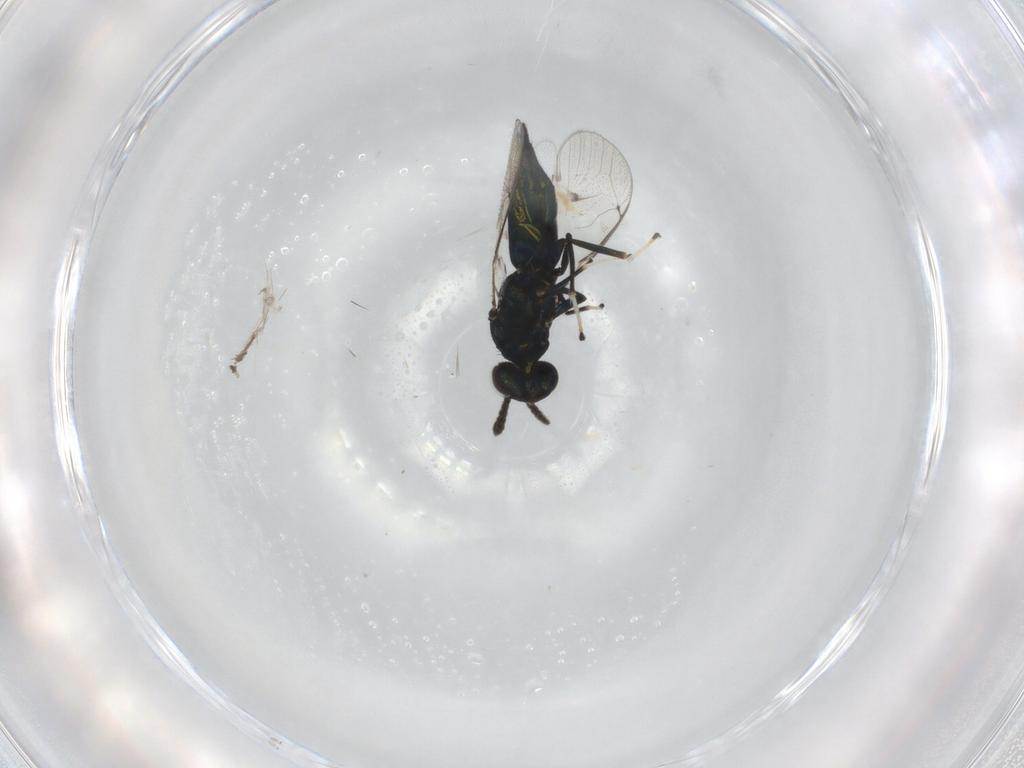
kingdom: Animalia
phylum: Arthropoda
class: Insecta
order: Hymenoptera
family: Eulophidae
